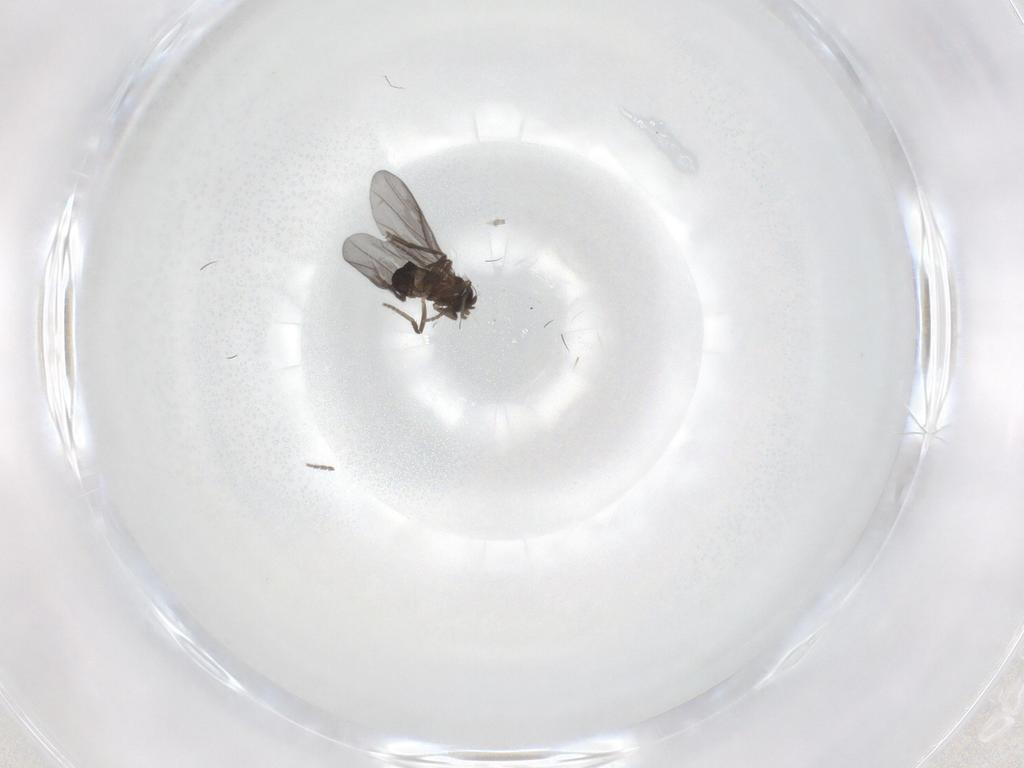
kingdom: Animalia
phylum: Arthropoda
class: Insecta
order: Diptera
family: Phoridae
